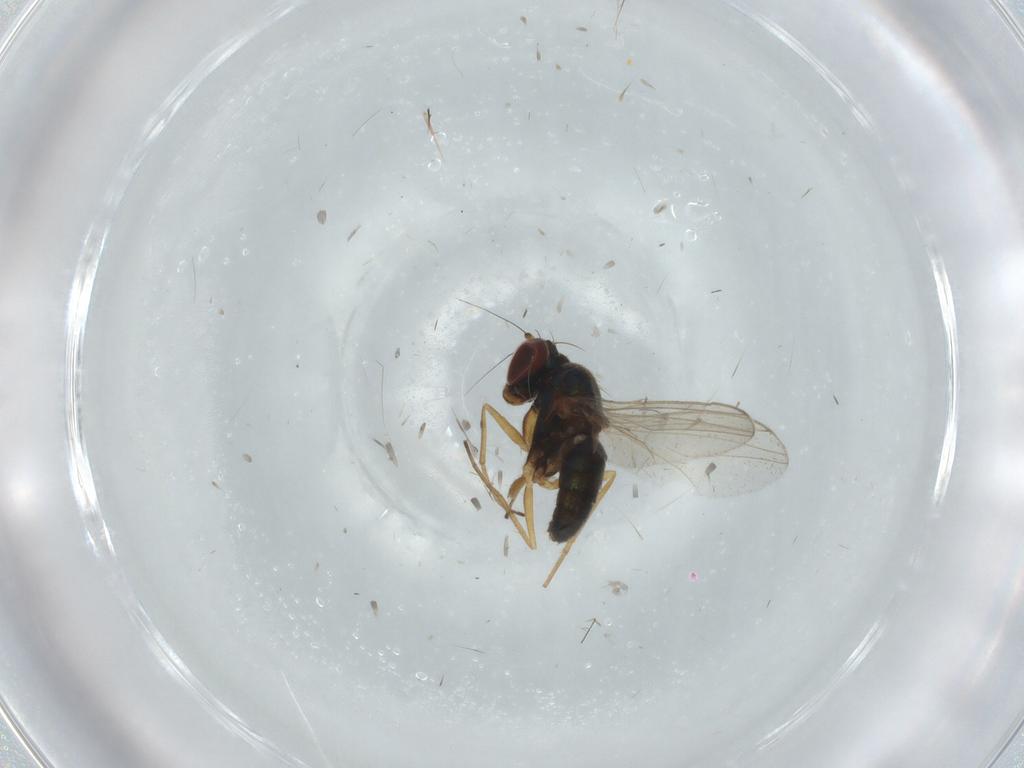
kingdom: Animalia
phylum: Arthropoda
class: Insecta
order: Diptera
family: Dolichopodidae
